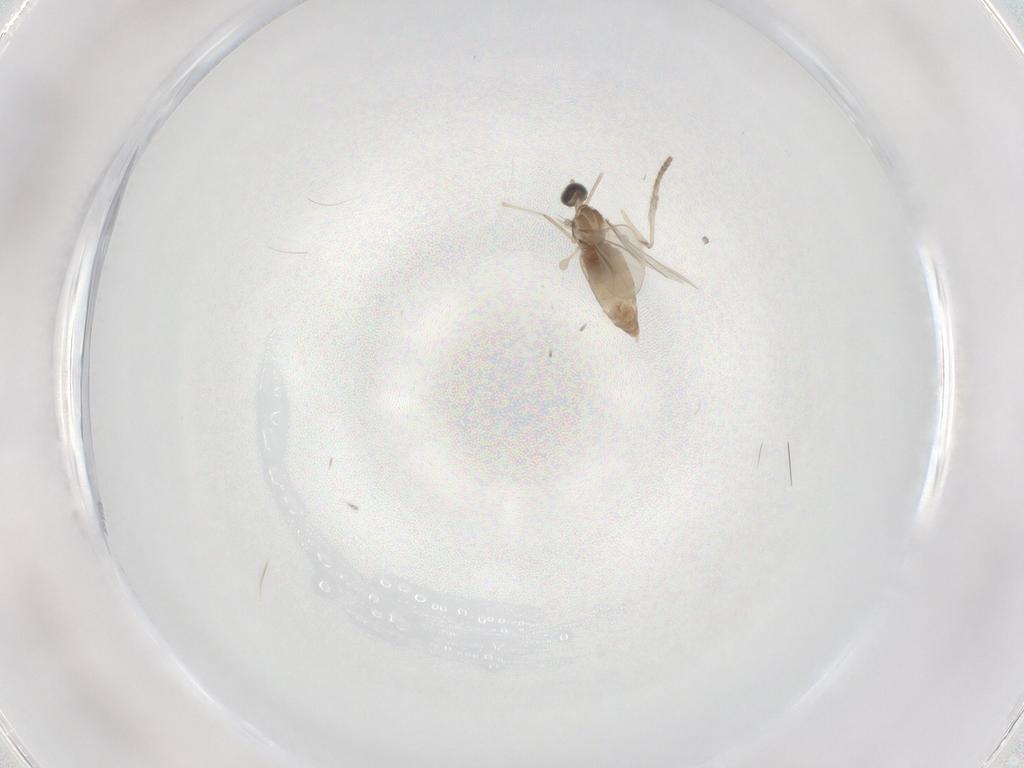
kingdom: Animalia
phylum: Arthropoda
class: Insecta
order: Diptera
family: Cecidomyiidae
